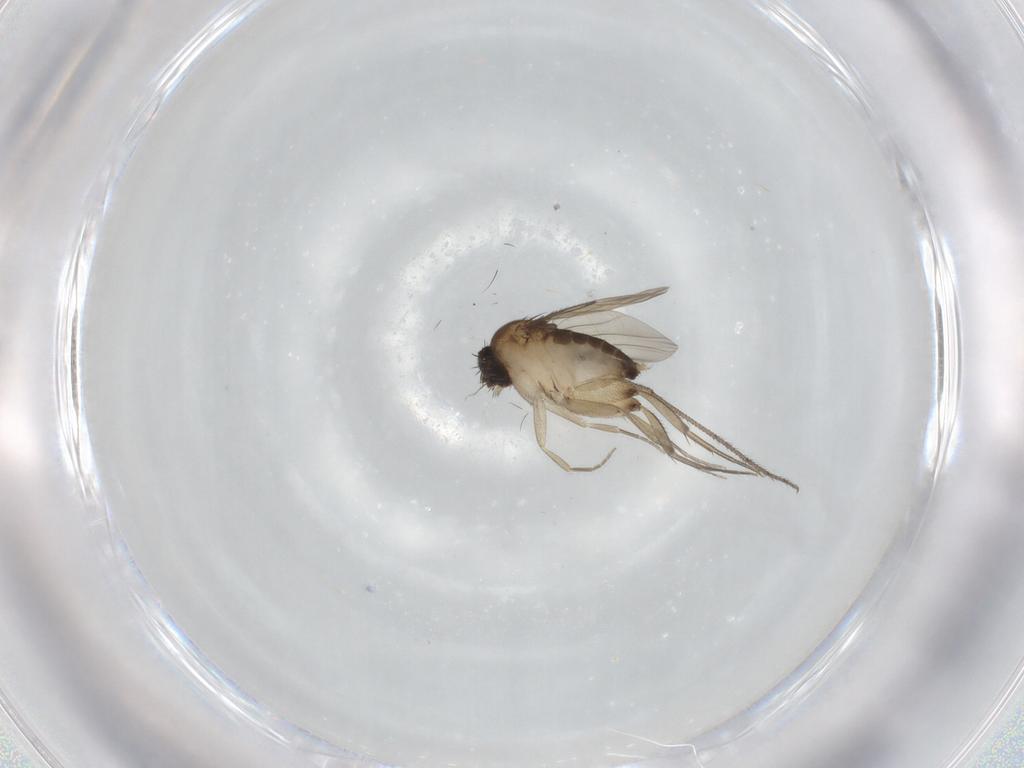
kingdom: Animalia
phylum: Arthropoda
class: Insecta
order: Diptera
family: Phoridae
